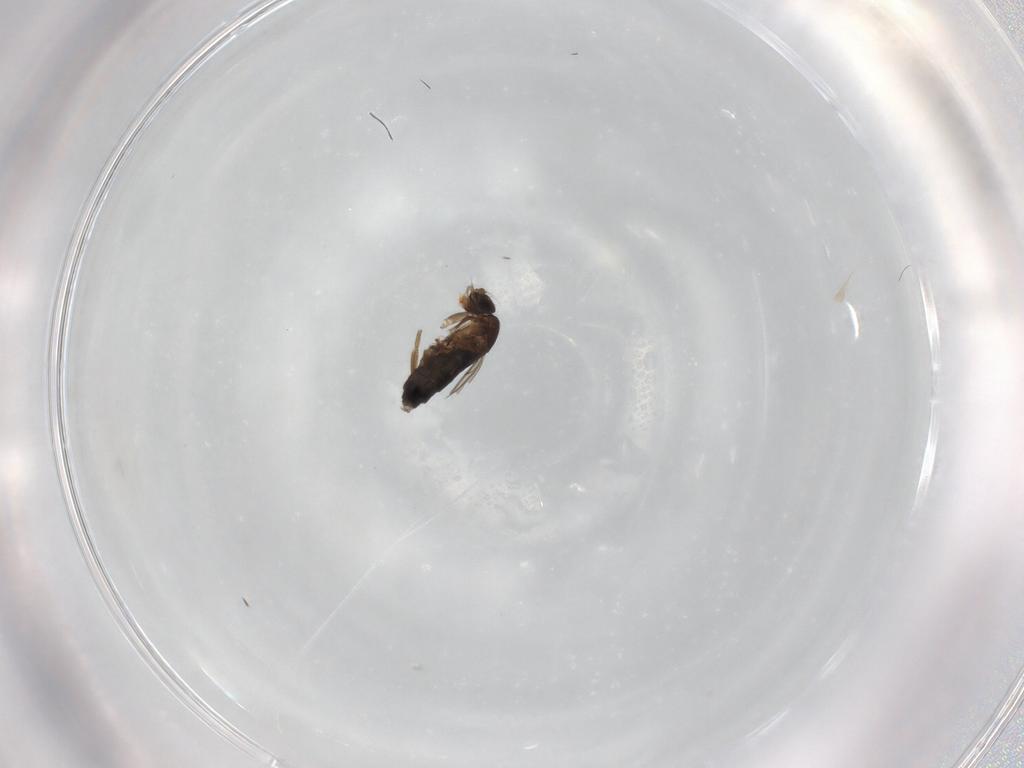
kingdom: Animalia
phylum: Arthropoda
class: Insecta
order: Diptera
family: Phoridae
